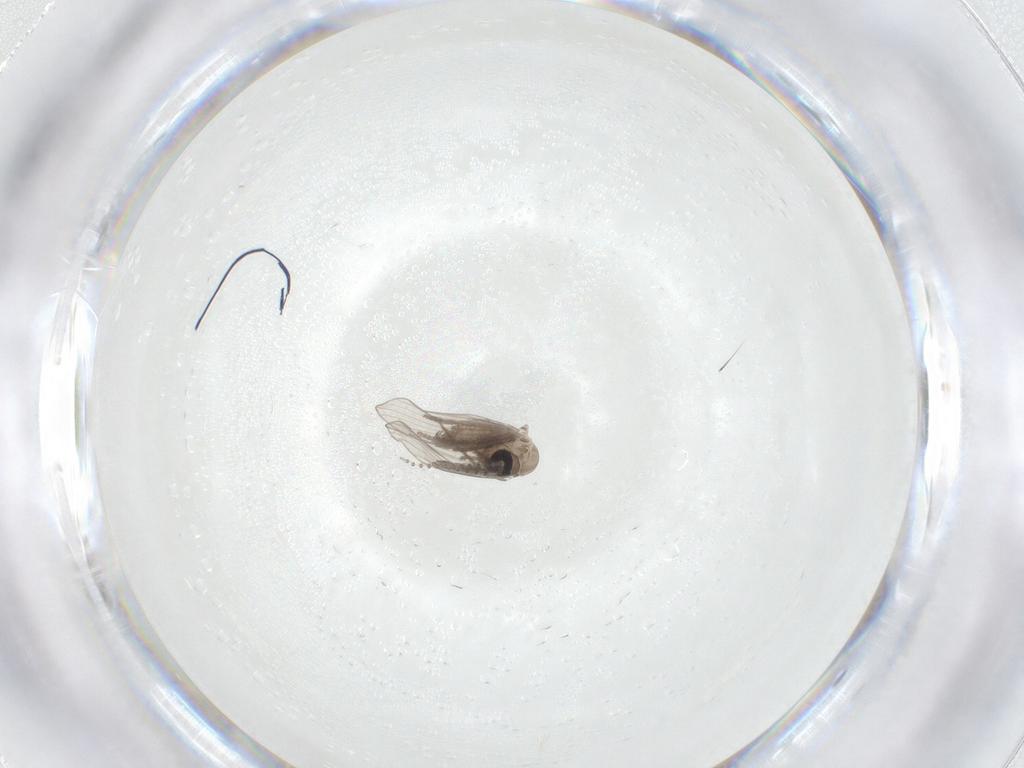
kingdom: Animalia
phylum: Arthropoda
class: Insecta
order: Diptera
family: Psychodidae
